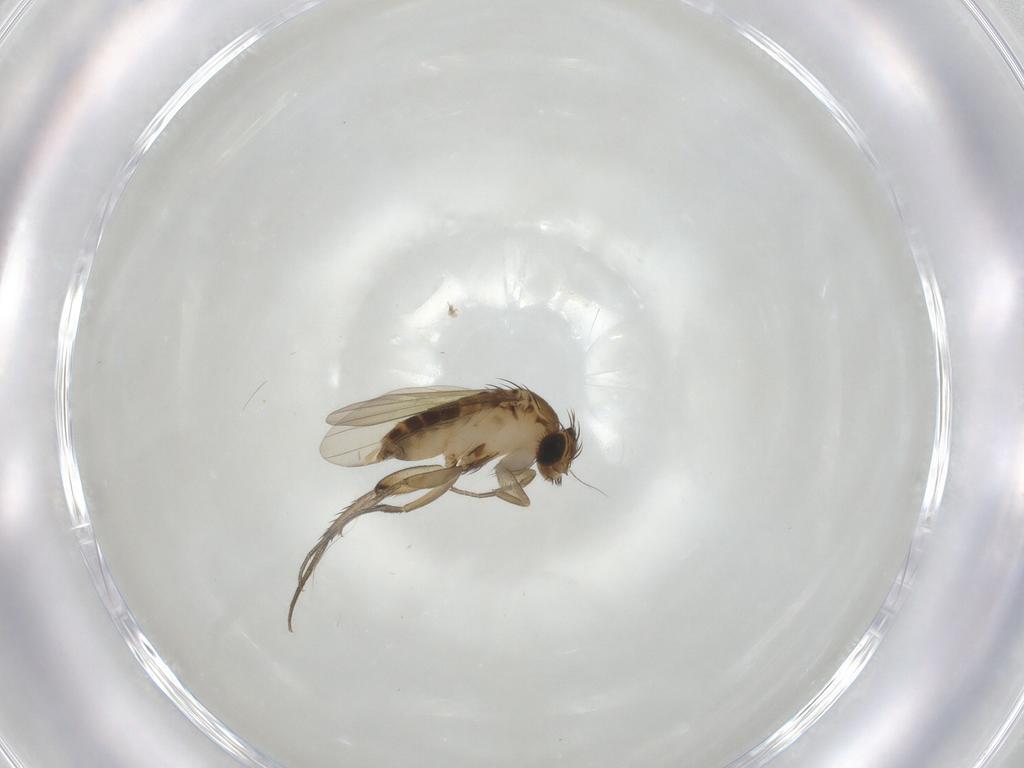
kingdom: Animalia
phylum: Arthropoda
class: Insecta
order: Diptera
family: Phoridae
